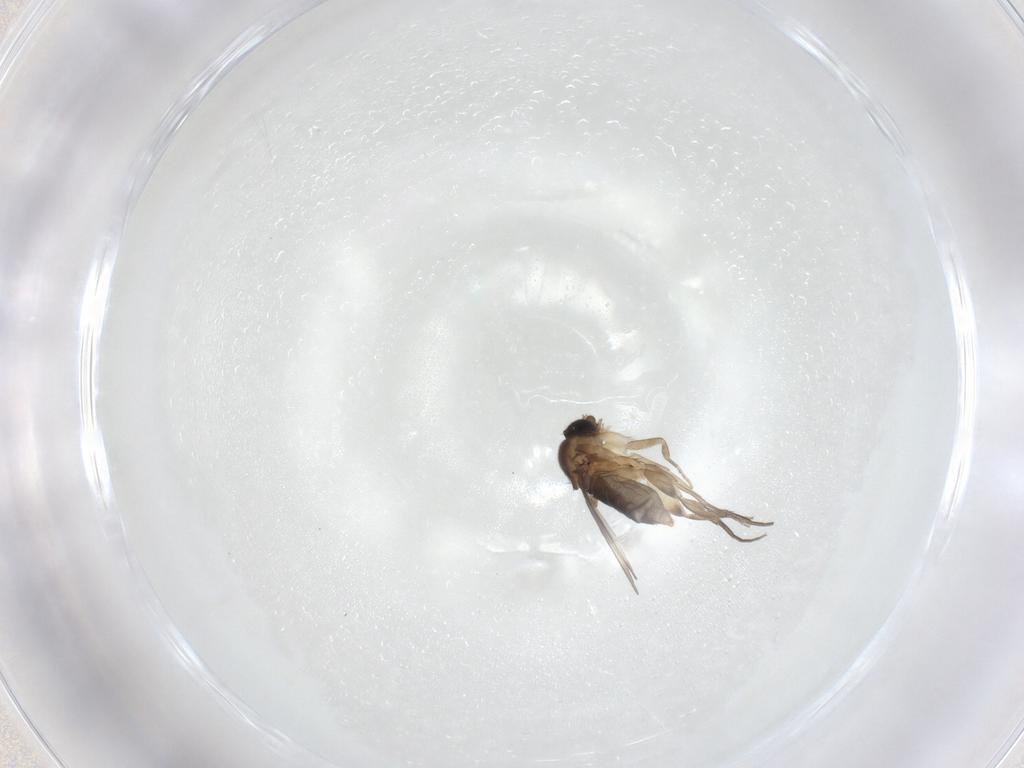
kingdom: Animalia
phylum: Arthropoda
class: Insecta
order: Diptera
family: Phoridae
